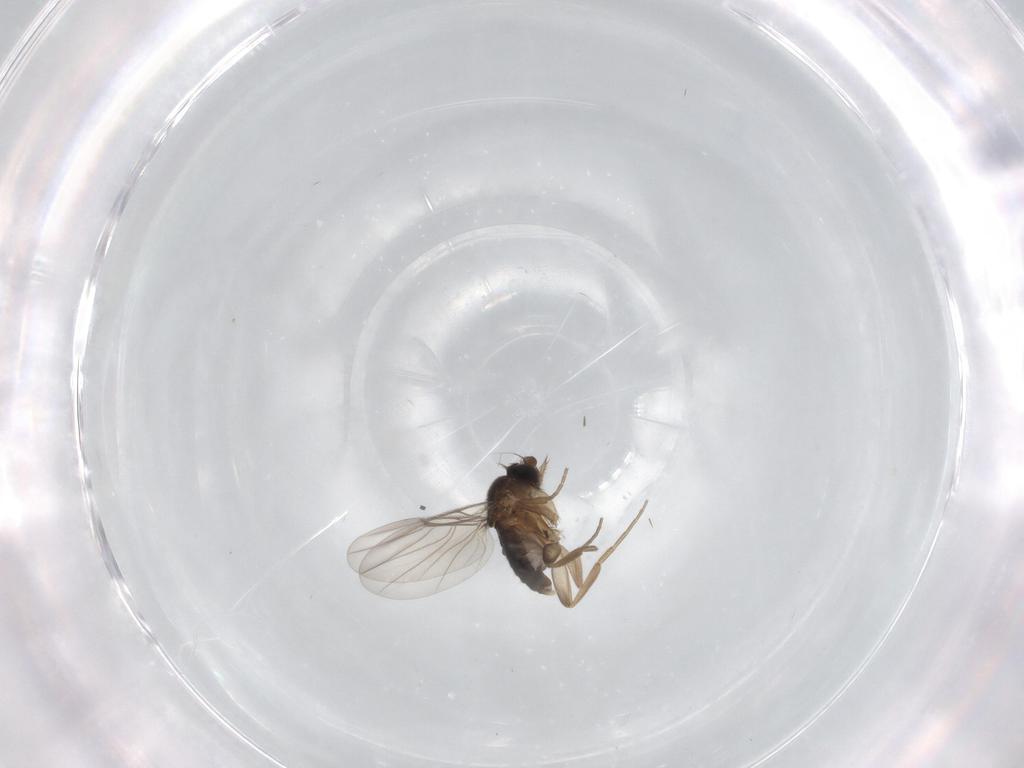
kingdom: Animalia
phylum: Arthropoda
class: Insecta
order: Diptera
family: Phoridae
